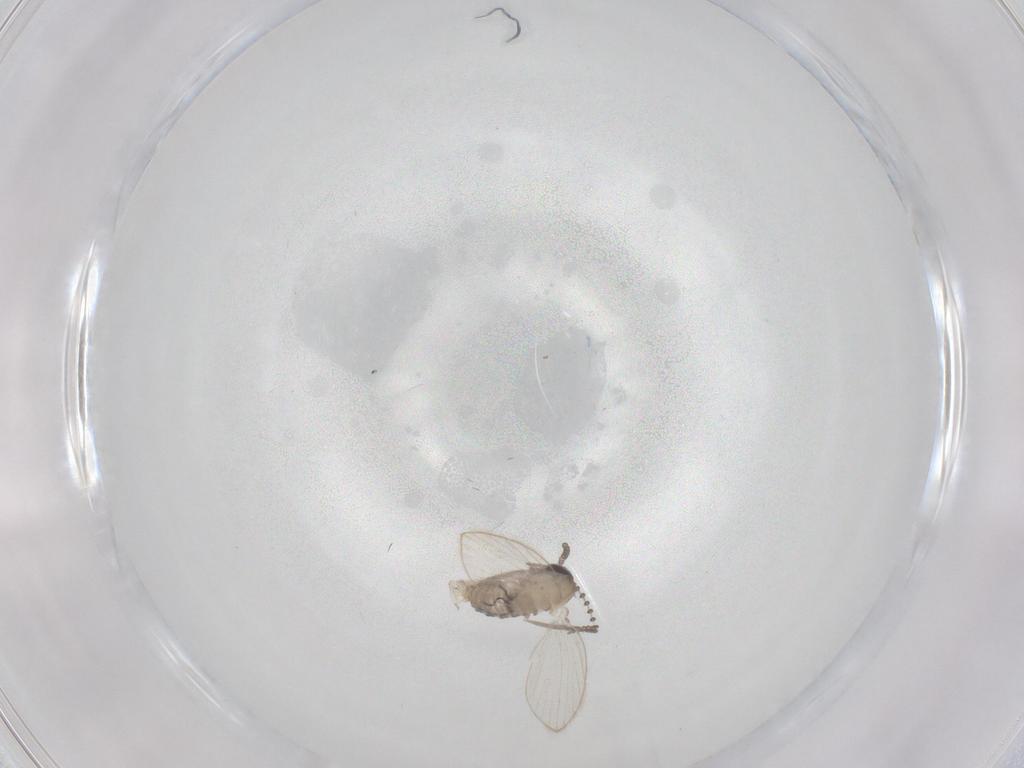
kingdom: Animalia
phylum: Arthropoda
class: Insecta
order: Diptera
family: Psychodidae
